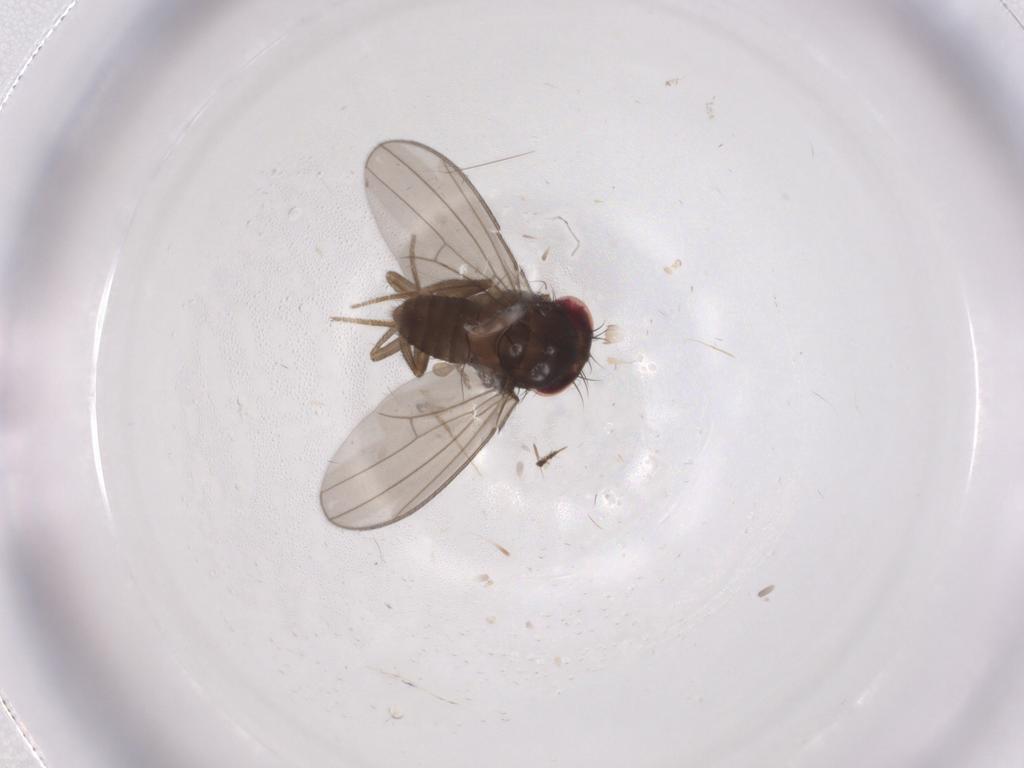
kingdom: Animalia
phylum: Arthropoda
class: Insecta
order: Diptera
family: Drosophilidae
